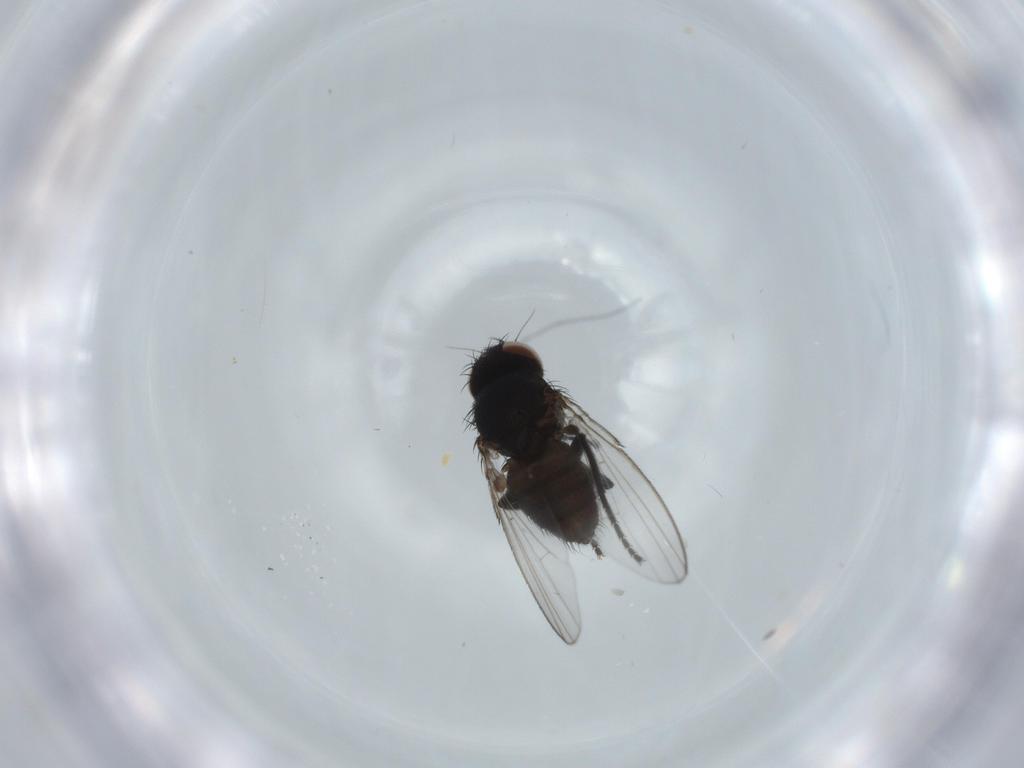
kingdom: Animalia
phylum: Arthropoda
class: Insecta
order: Diptera
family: Milichiidae
